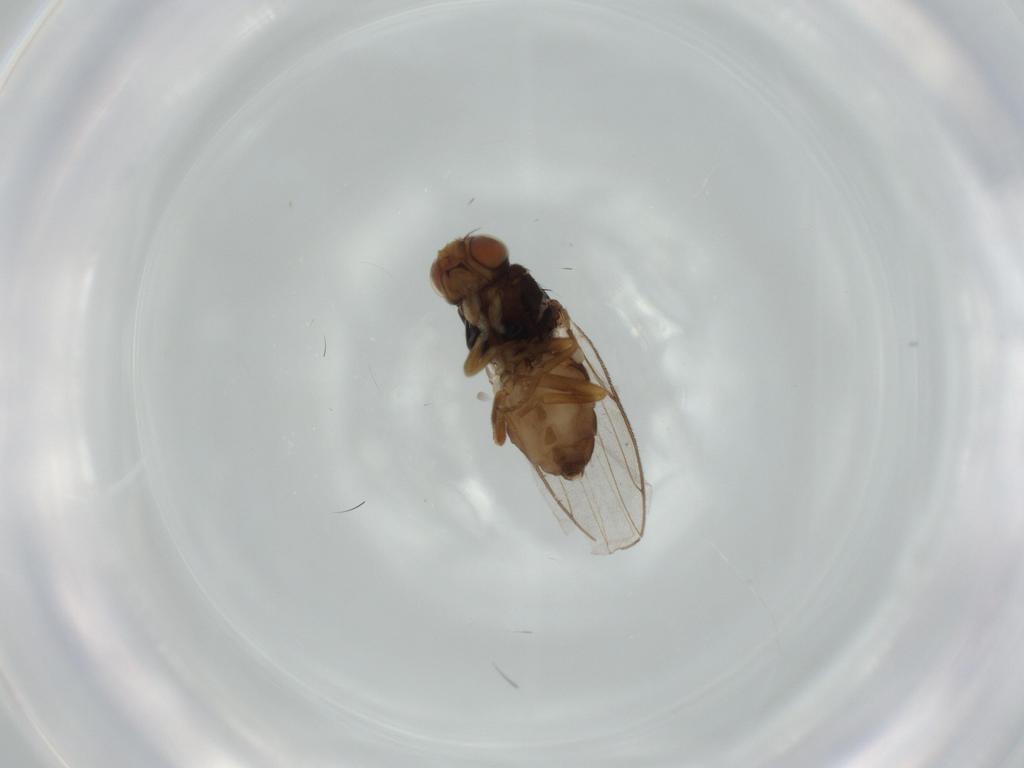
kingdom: Animalia
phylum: Arthropoda
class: Insecta
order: Diptera
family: Chloropidae
